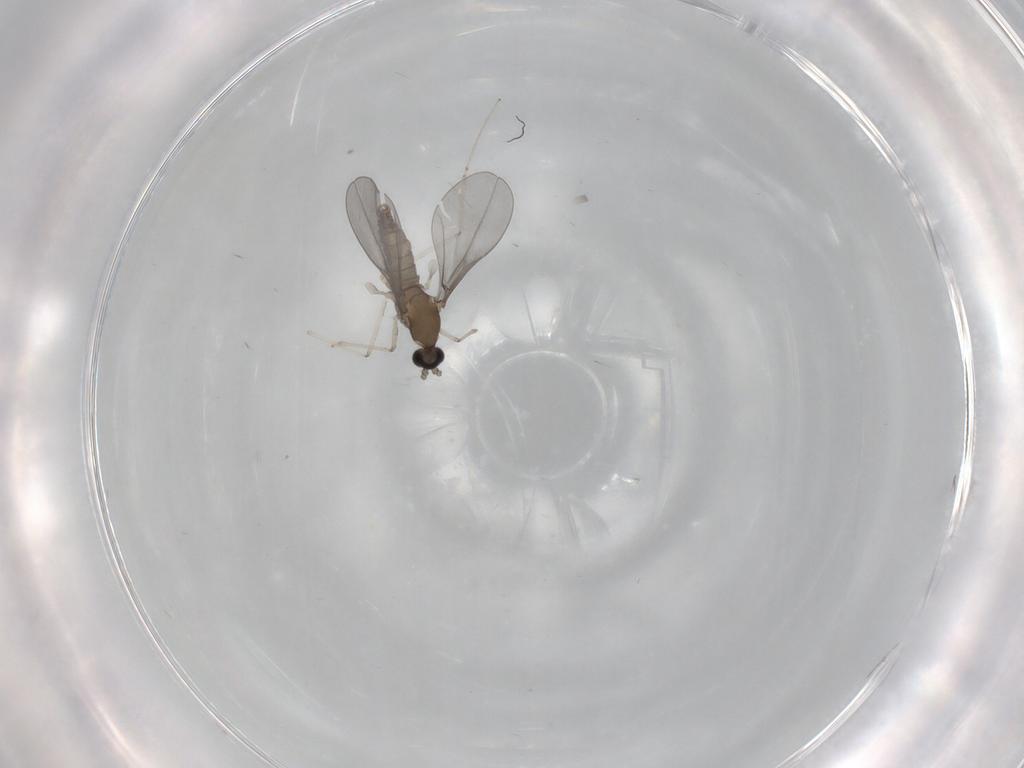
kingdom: Animalia
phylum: Arthropoda
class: Insecta
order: Diptera
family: Cecidomyiidae
